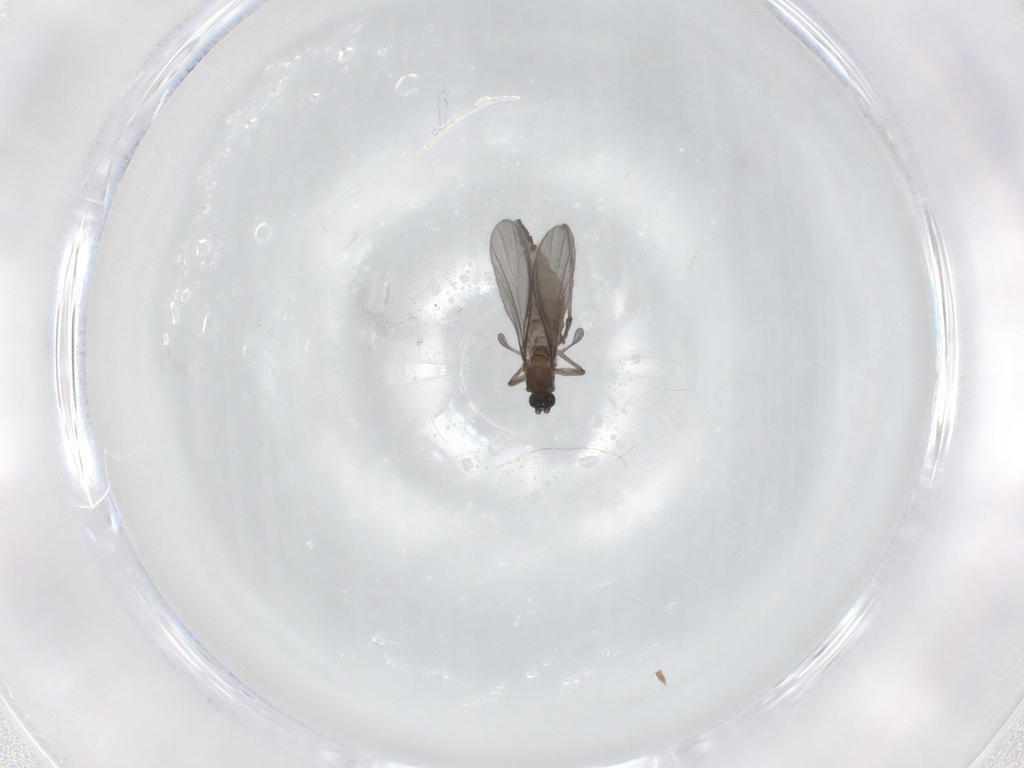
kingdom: Animalia
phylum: Arthropoda
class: Insecta
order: Diptera
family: Sciaridae
